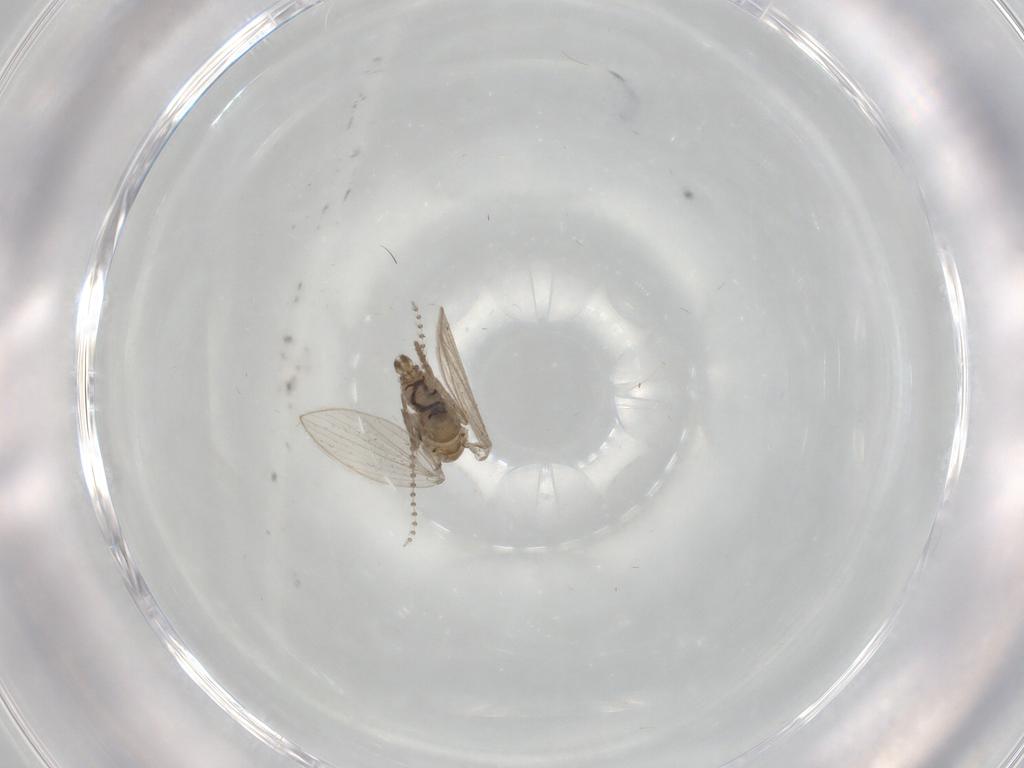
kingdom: Animalia
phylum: Arthropoda
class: Insecta
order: Diptera
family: Psychodidae
